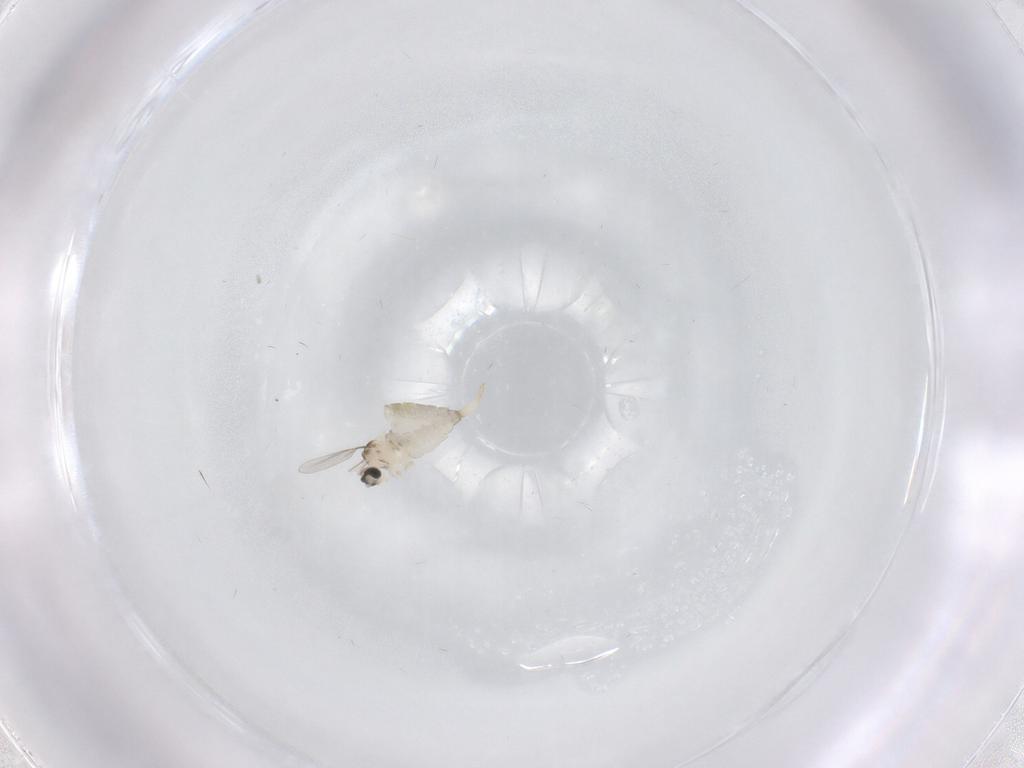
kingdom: Animalia
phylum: Arthropoda
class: Insecta
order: Diptera
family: Cecidomyiidae
